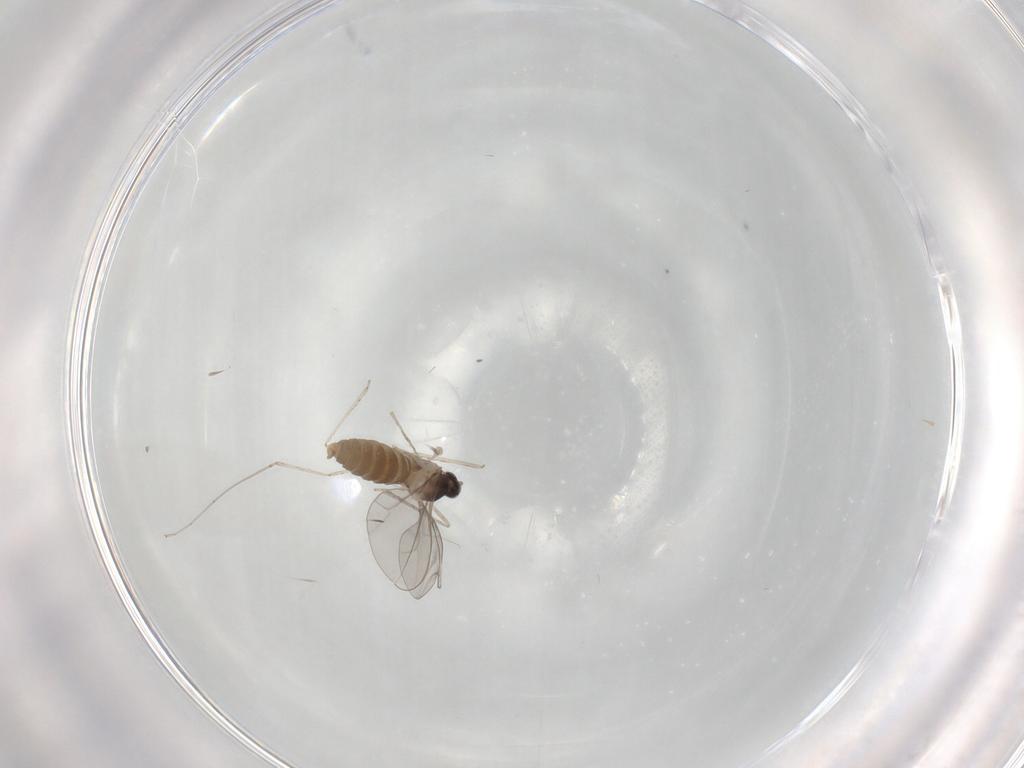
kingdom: Animalia
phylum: Arthropoda
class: Insecta
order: Diptera
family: Cecidomyiidae
